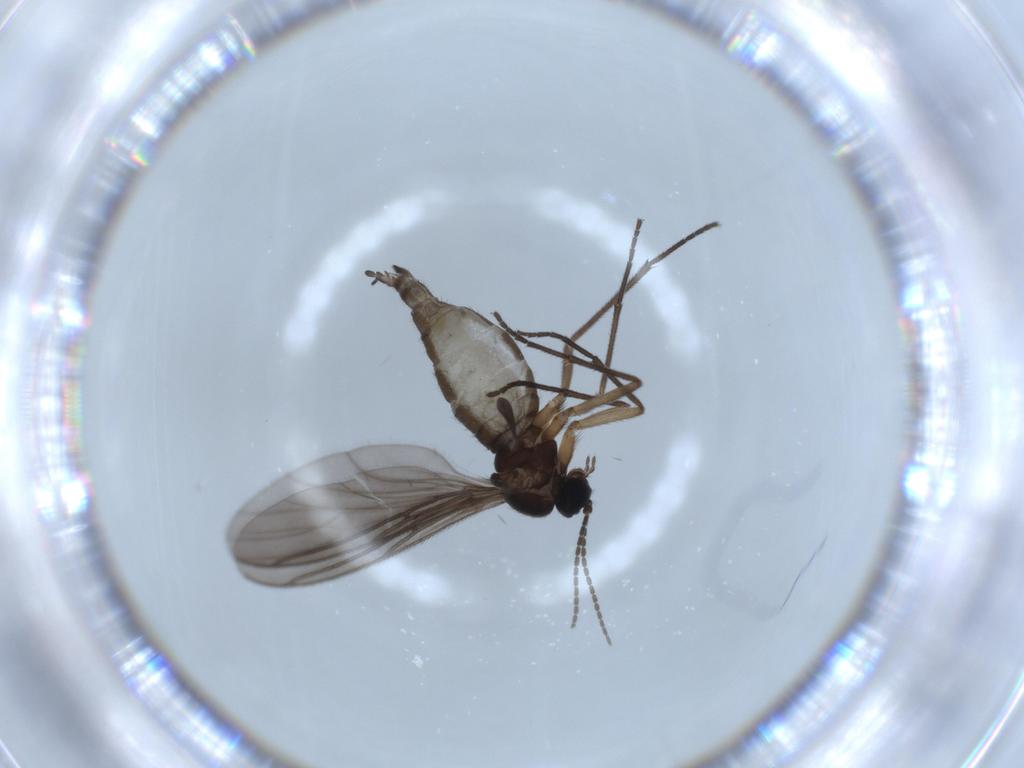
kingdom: Animalia
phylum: Arthropoda
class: Insecta
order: Diptera
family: Sciaridae
